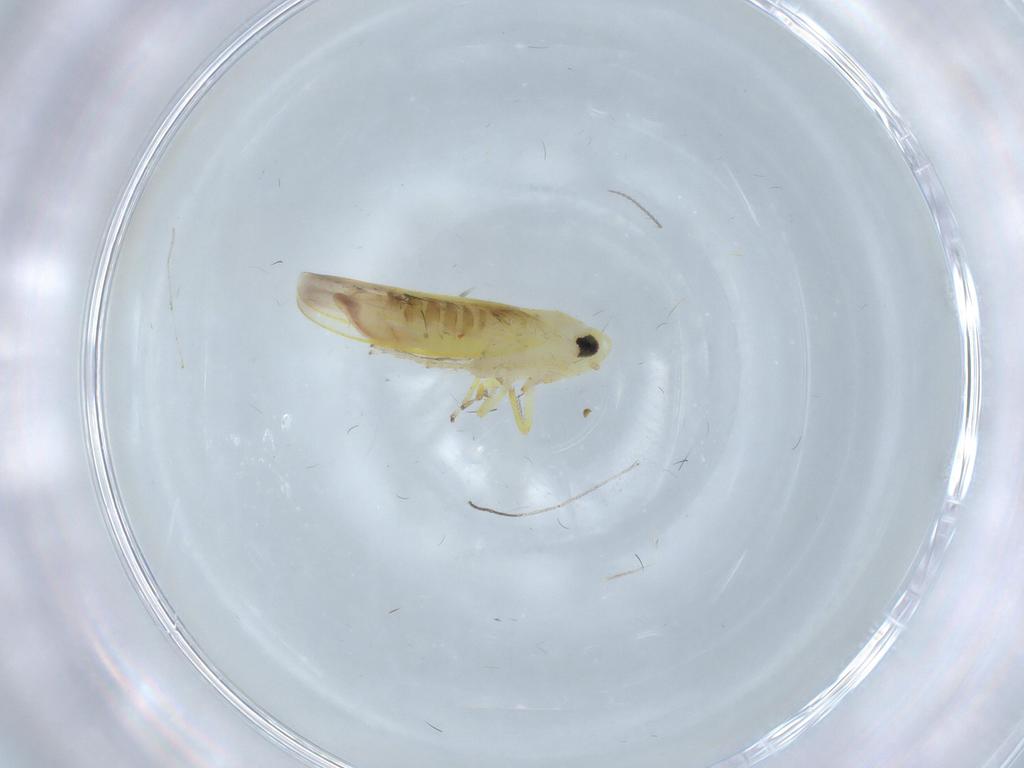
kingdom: Animalia
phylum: Arthropoda
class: Insecta
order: Hemiptera
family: Cicadellidae
